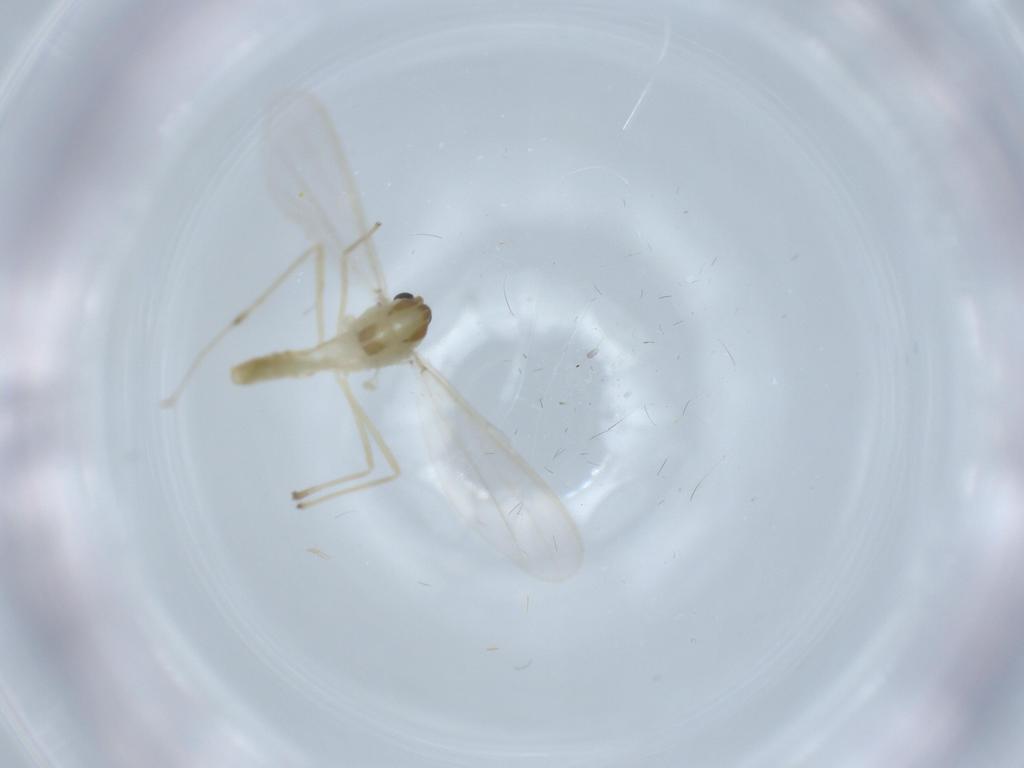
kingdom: Animalia
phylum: Arthropoda
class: Insecta
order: Diptera
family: Chironomidae
